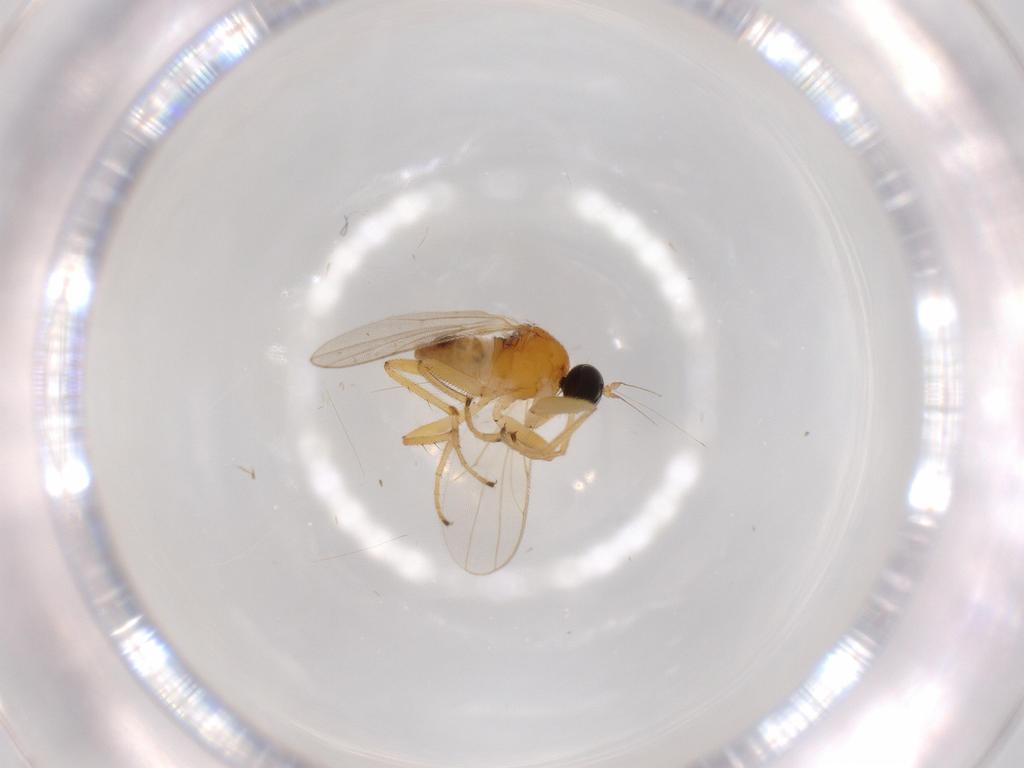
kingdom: Animalia
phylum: Arthropoda
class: Insecta
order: Diptera
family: Hybotidae
